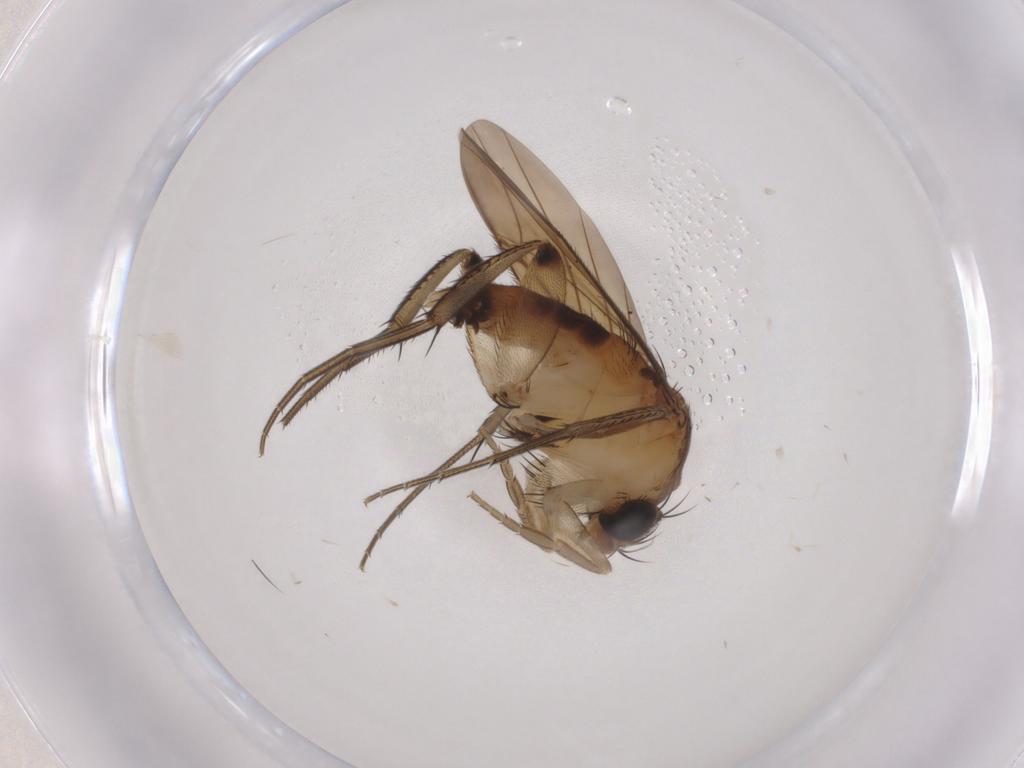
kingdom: Animalia
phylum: Arthropoda
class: Insecta
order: Diptera
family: Phoridae
